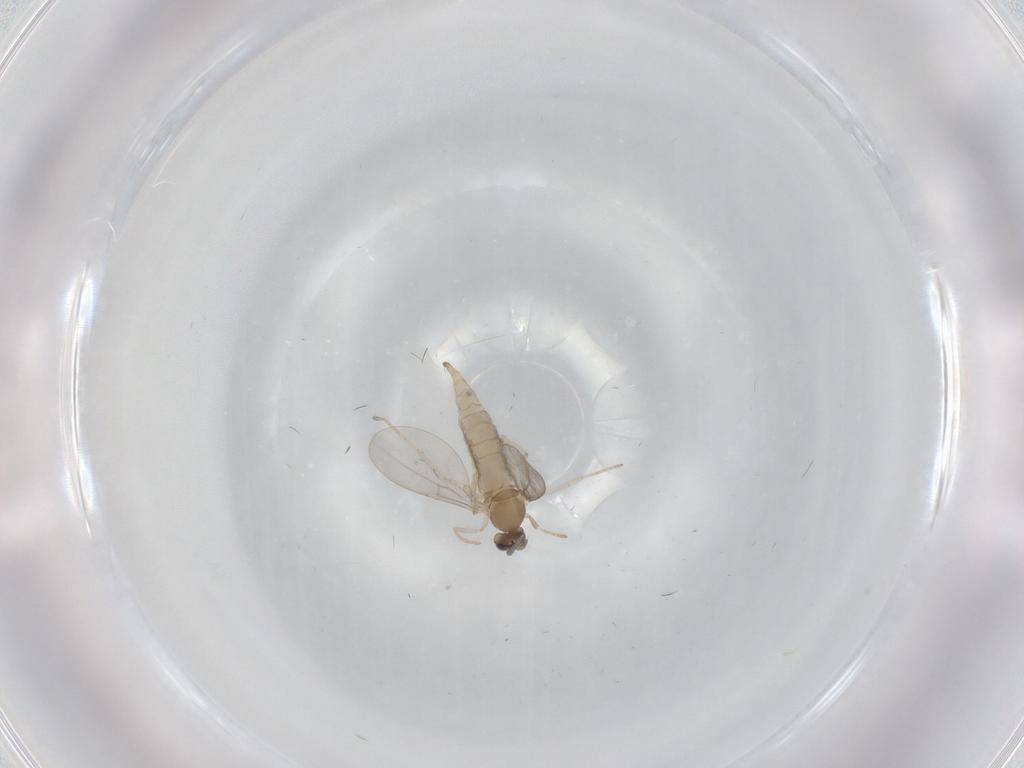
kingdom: Animalia
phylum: Arthropoda
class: Insecta
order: Diptera
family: Cecidomyiidae
